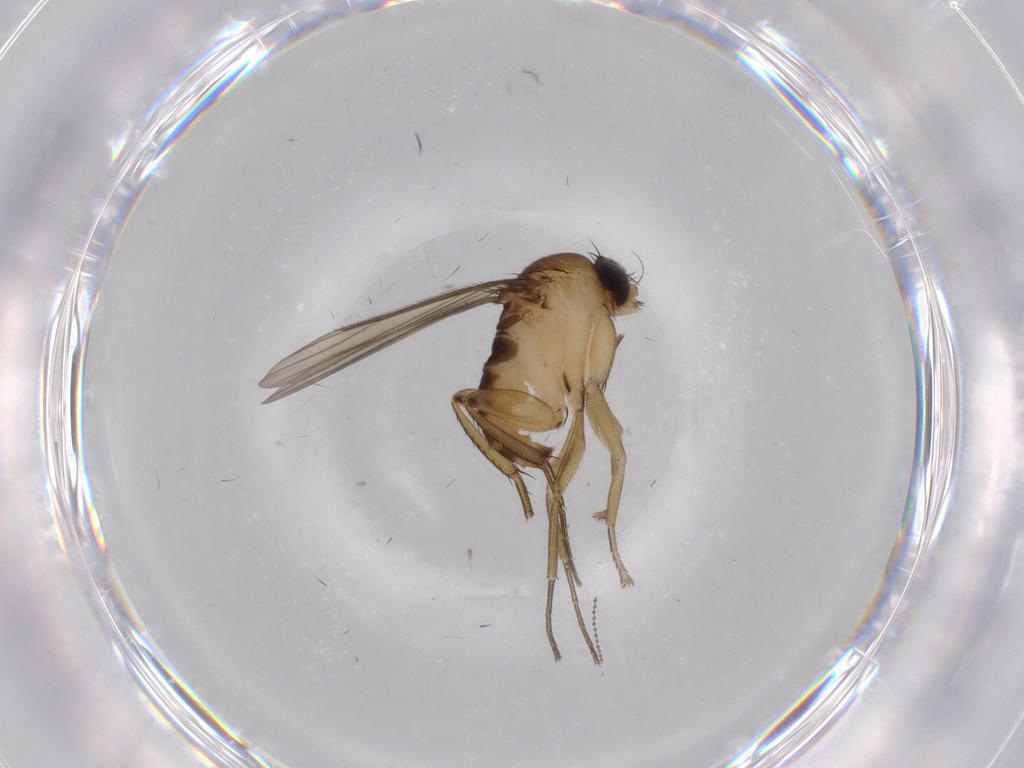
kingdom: Animalia
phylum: Arthropoda
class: Insecta
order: Diptera
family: Phoridae
